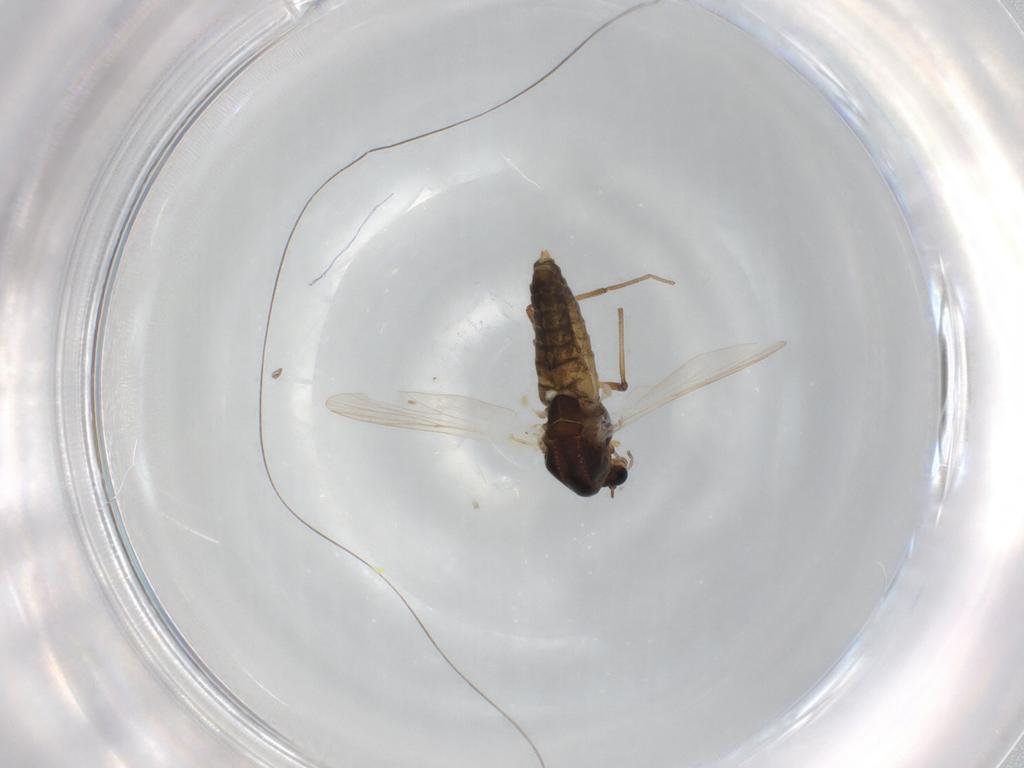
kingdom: Animalia
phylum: Arthropoda
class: Insecta
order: Diptera
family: Chironomidae
